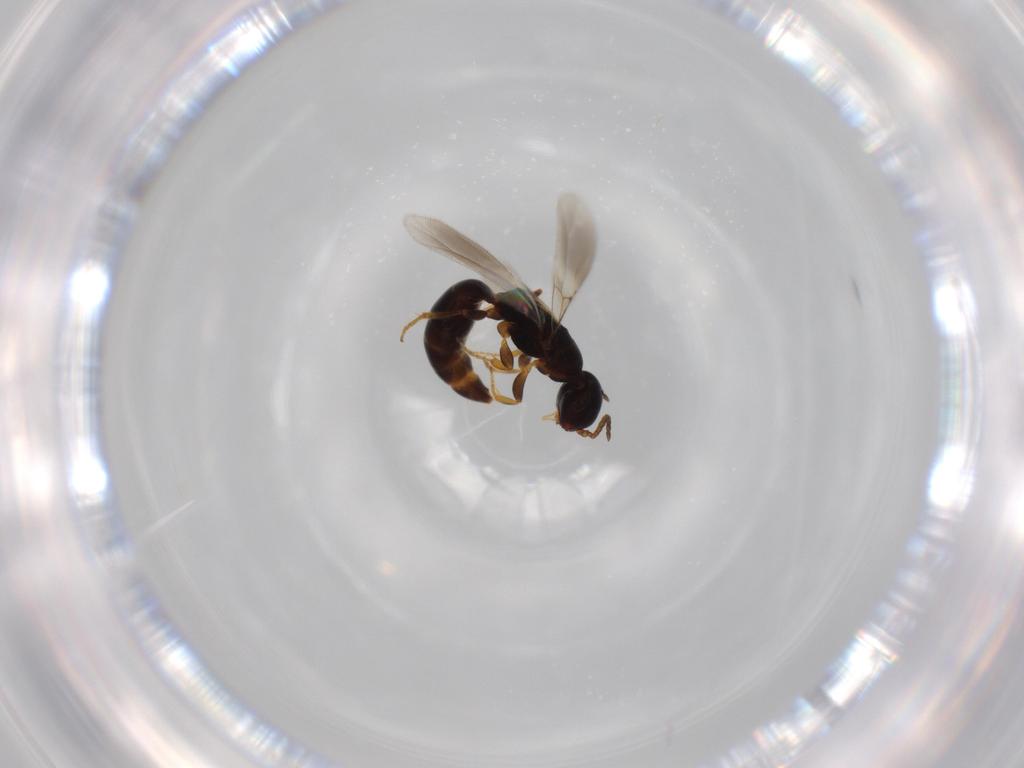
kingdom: Animalia
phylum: Arthropoda
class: Insecta
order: Hymenoptera
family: Bethylidae
